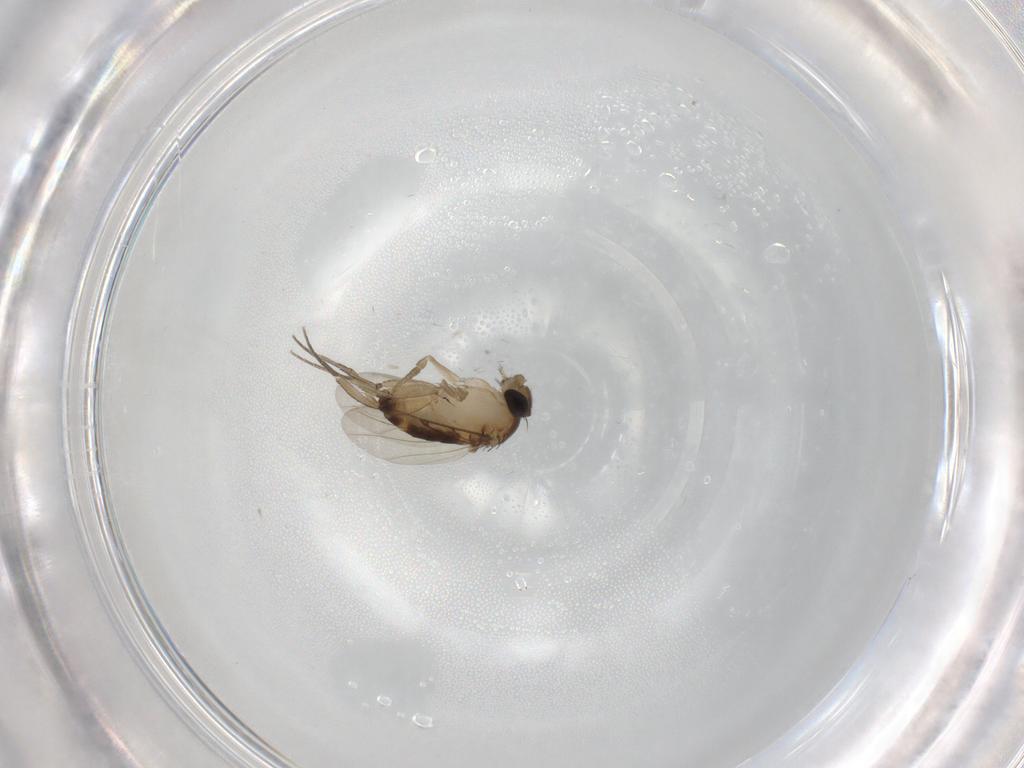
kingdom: Animalia
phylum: Arthropoda
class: Insecta
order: Diptera
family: Phoridae
